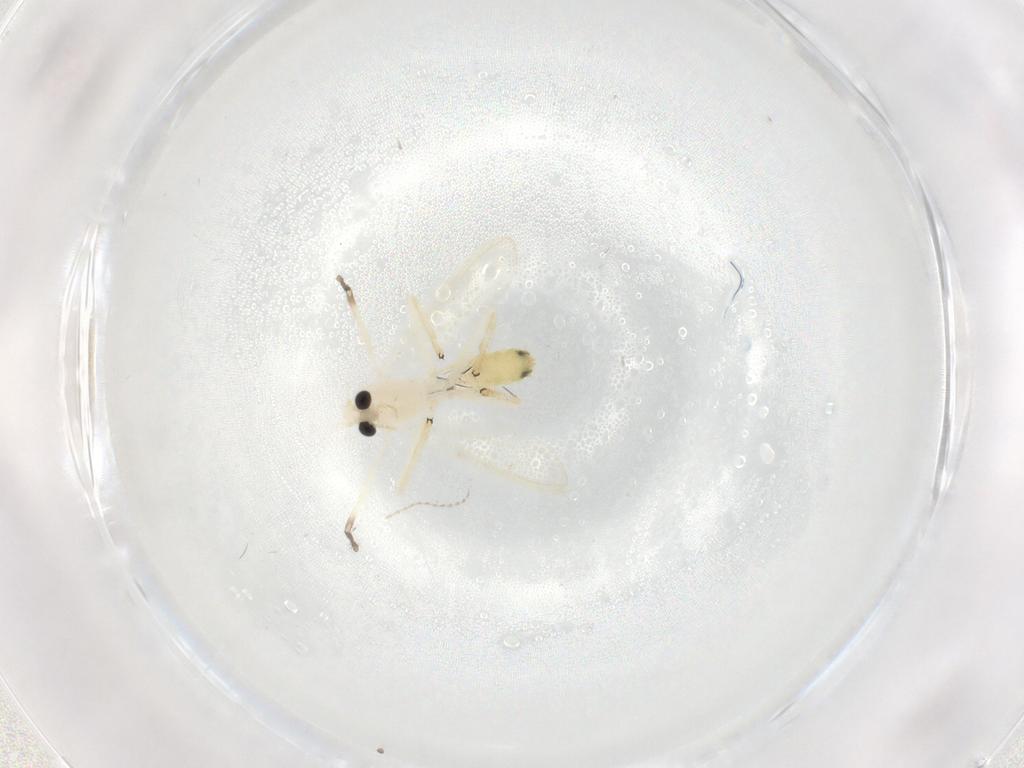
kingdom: Animalia
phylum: Arthropoda
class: Insecta
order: Diptera
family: Chironomidae
